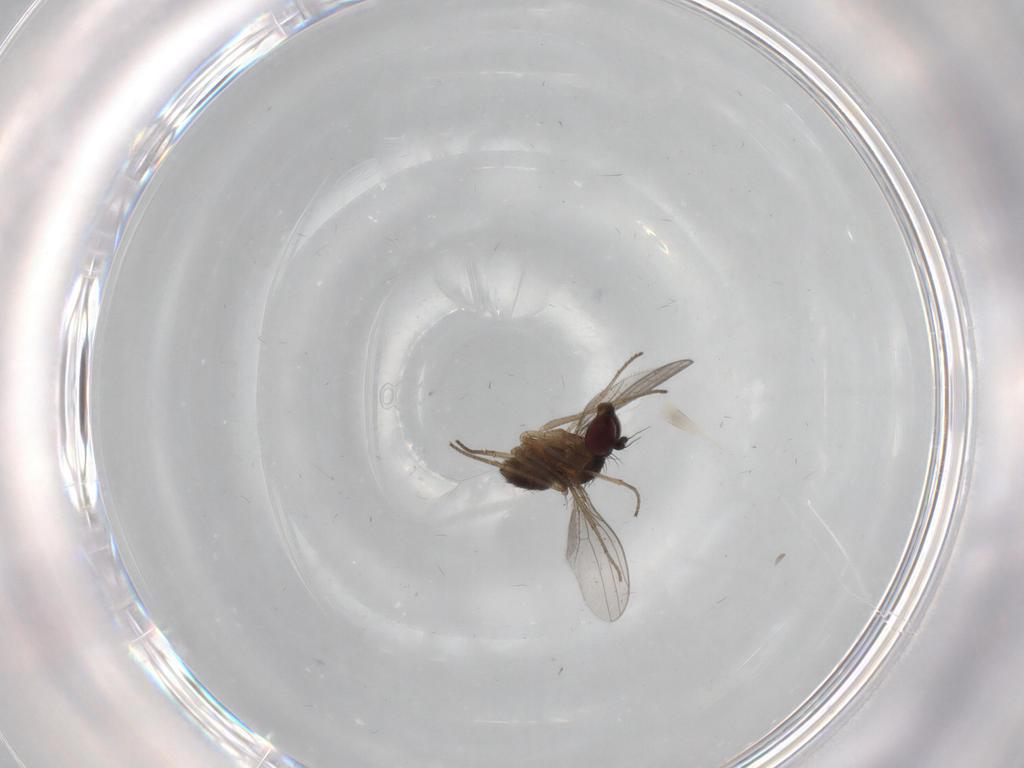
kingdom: Animalia
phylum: Arthropoda
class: Insecta
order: Diptera
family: Dolichopodidae
